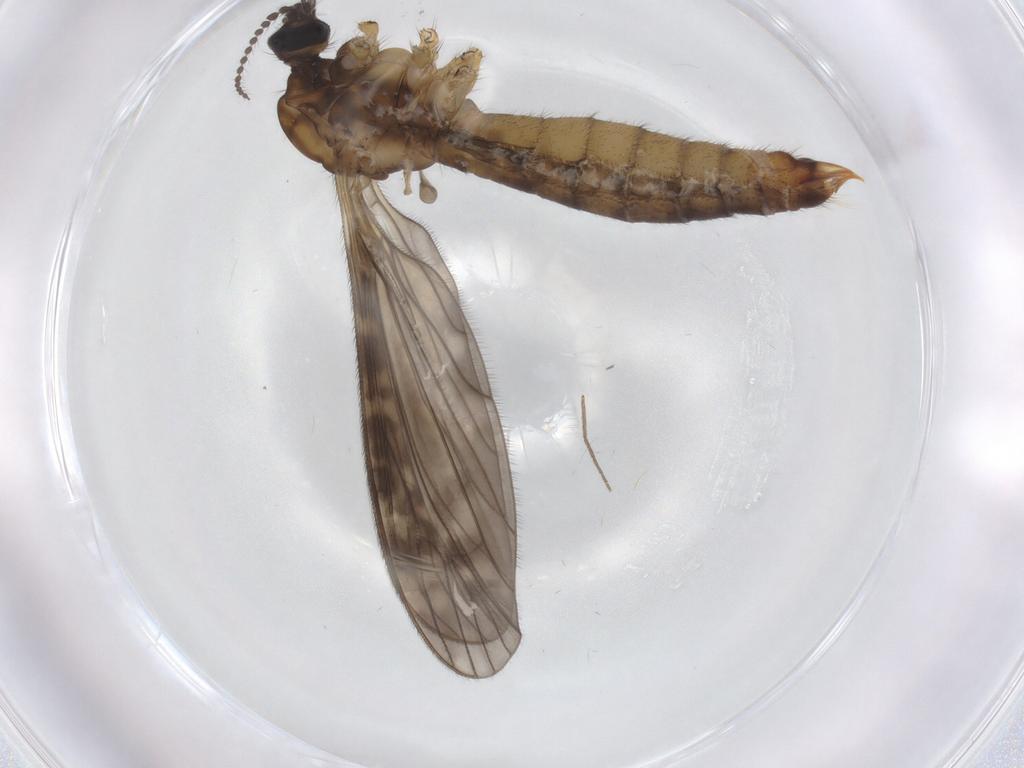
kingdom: Animalia
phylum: Arthropoda
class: Insecta
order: Diptera
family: Limoniidae
